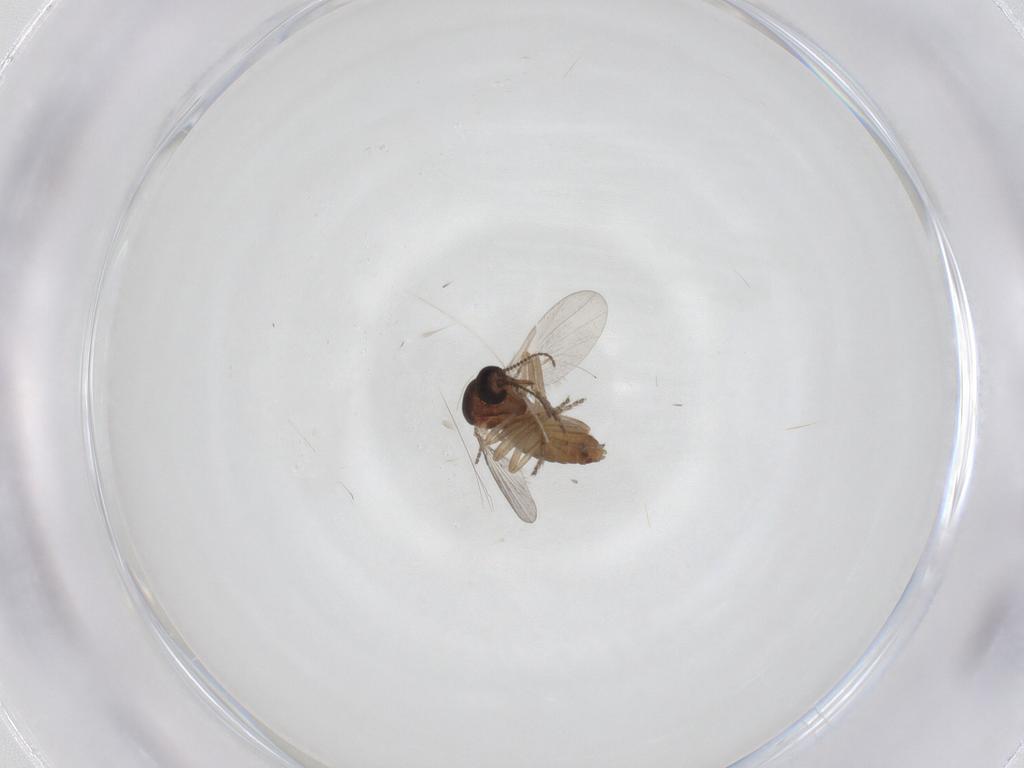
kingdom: Animalia
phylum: Arthropoda
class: Insecta
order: Diptera
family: Ceratopogonidae
